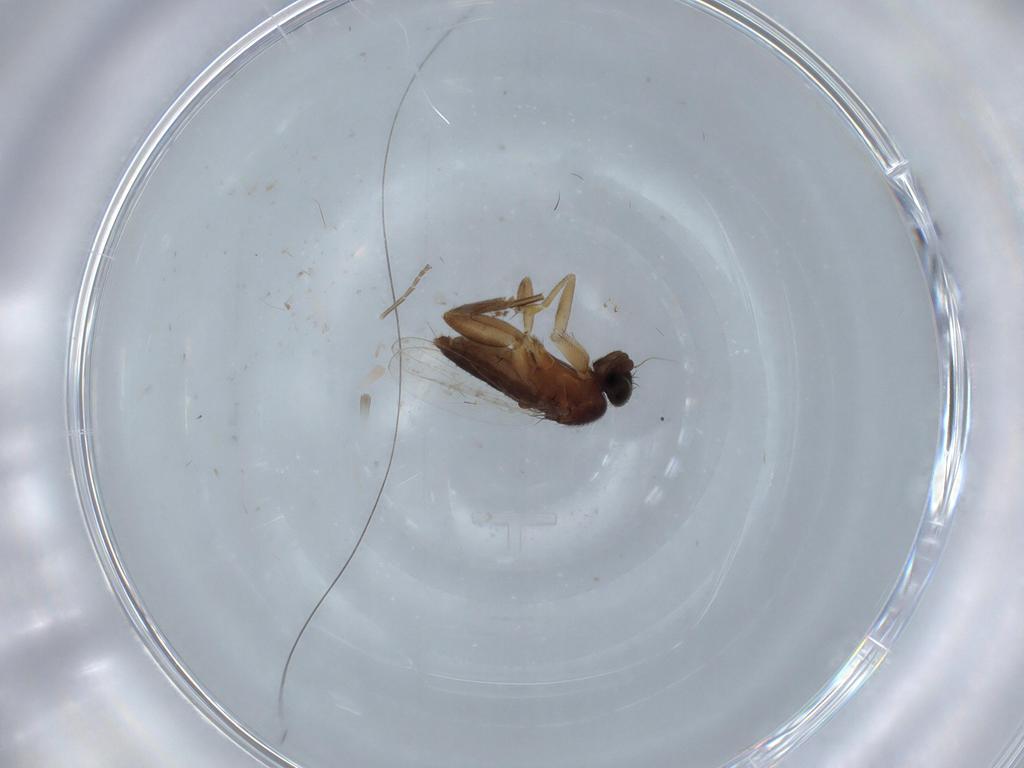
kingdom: Animalia
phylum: Arthropoda
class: Insecta
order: Diptera
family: Phoridae
